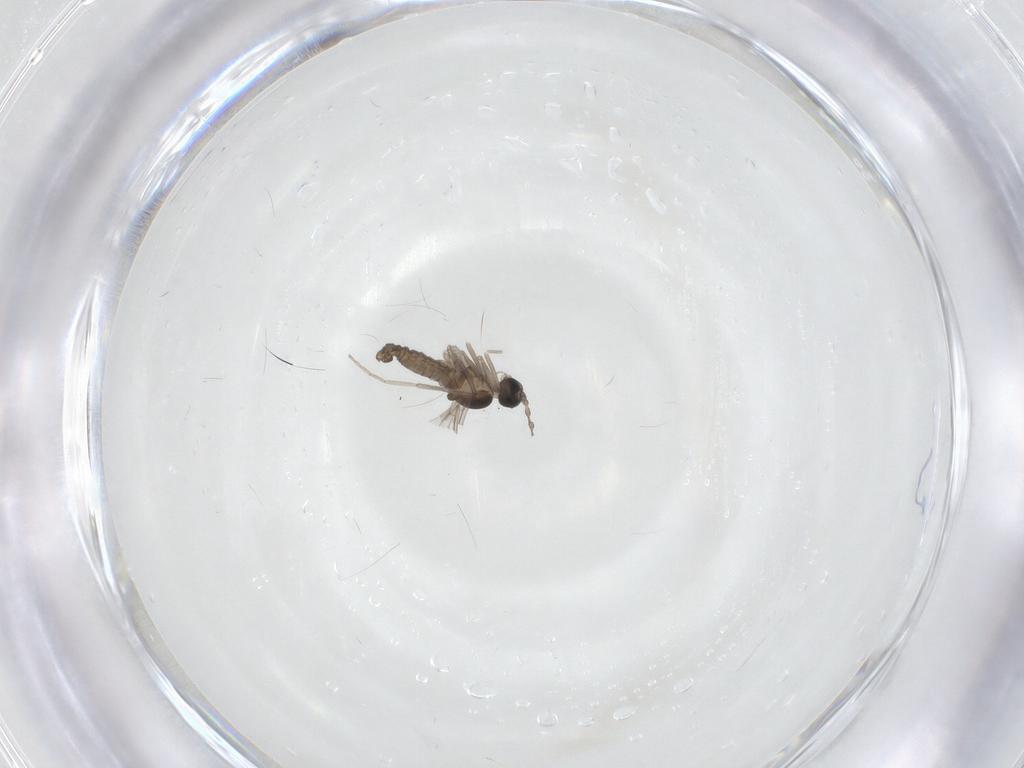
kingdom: Animalia
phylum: Arthropoda
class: Insecta
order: Diptera
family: Cecidomyiidae
